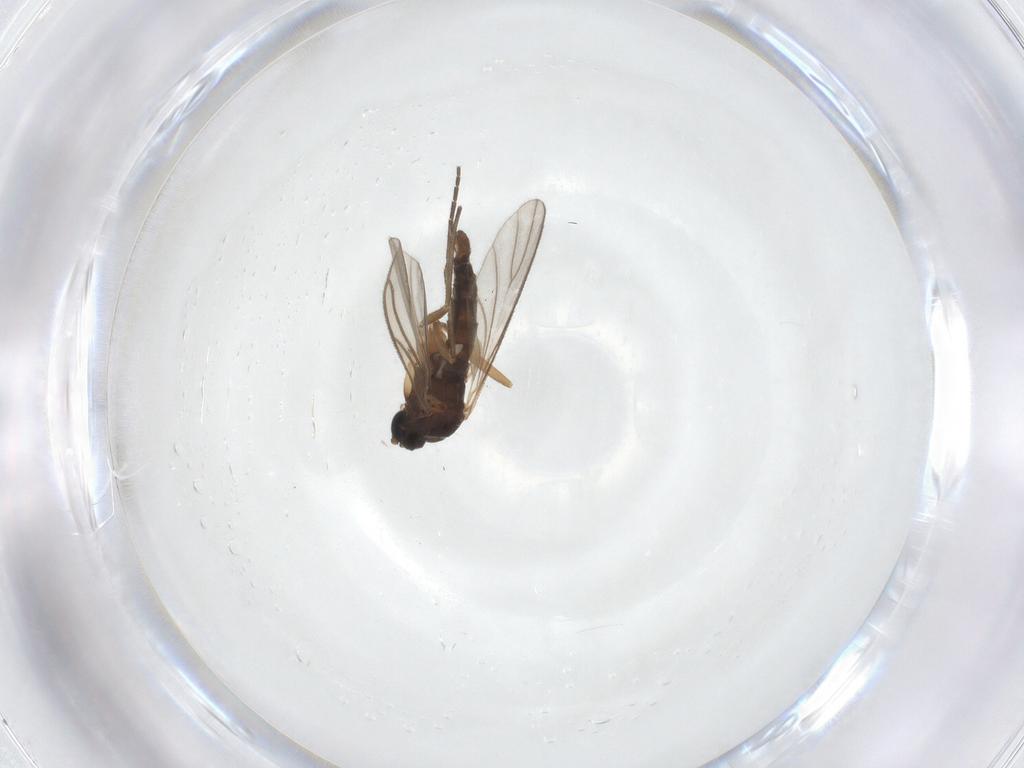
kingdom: Animalia
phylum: Arthropoda
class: Insecta
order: Diptera
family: Sciaridae
